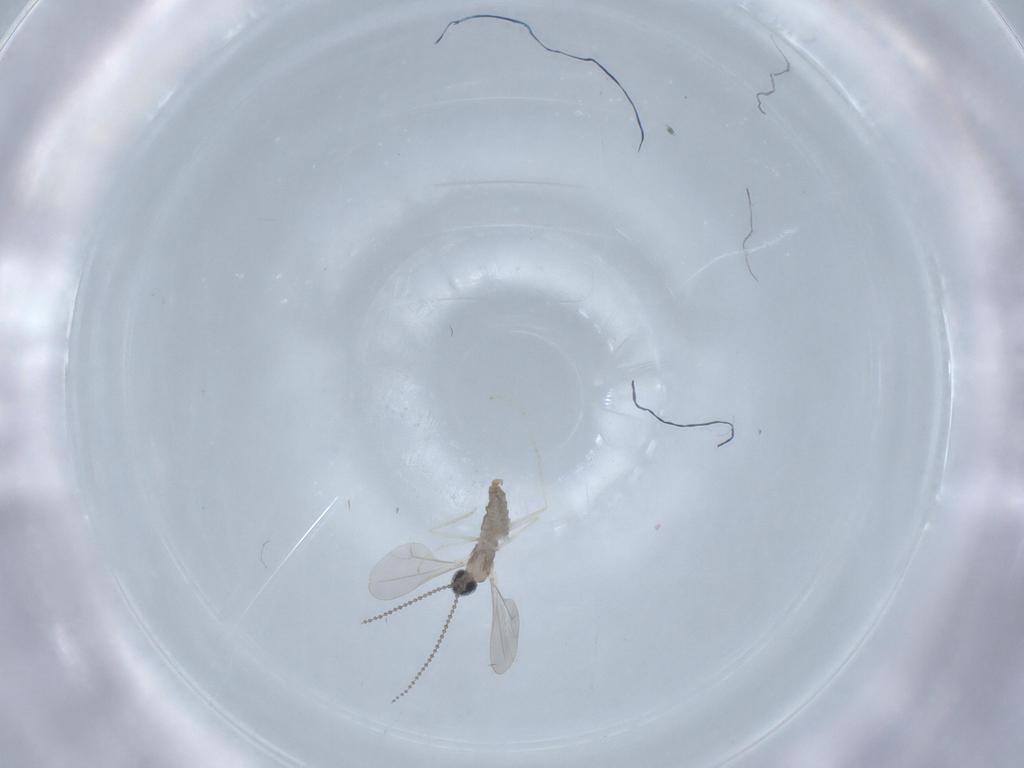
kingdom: Animalia
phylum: Arthropoda
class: Insecta
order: Diptera
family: Cecidomyiidae
